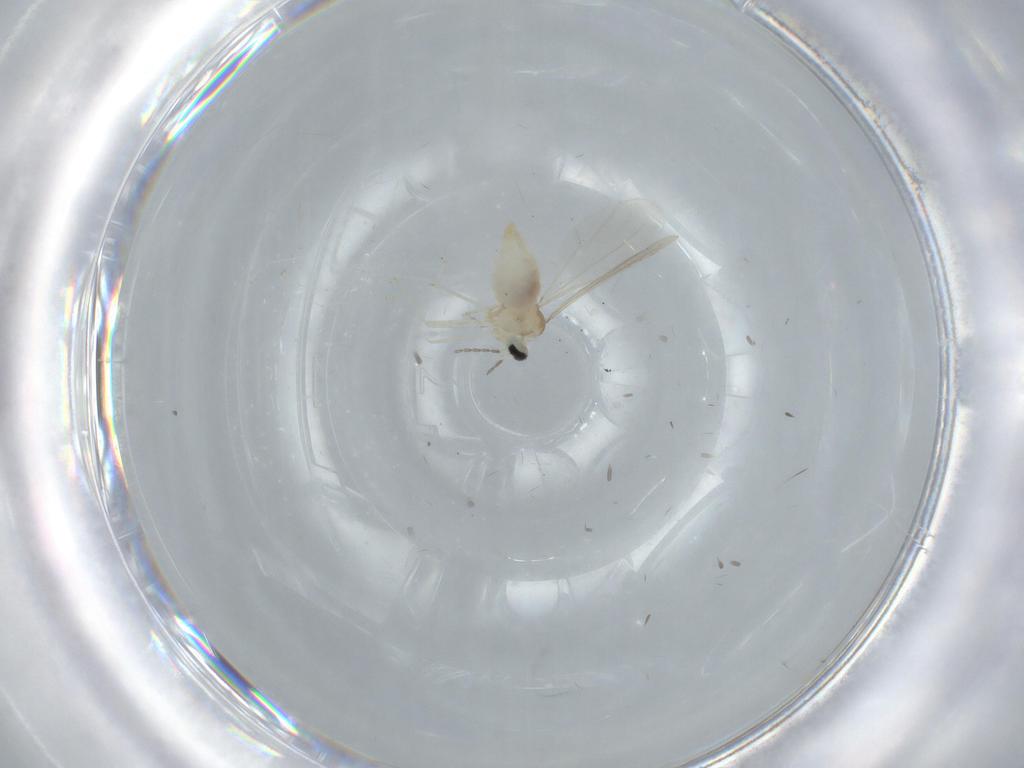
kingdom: Animalia
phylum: Arthropoda
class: Insecta
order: Diptera
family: Cecidomyiidae
